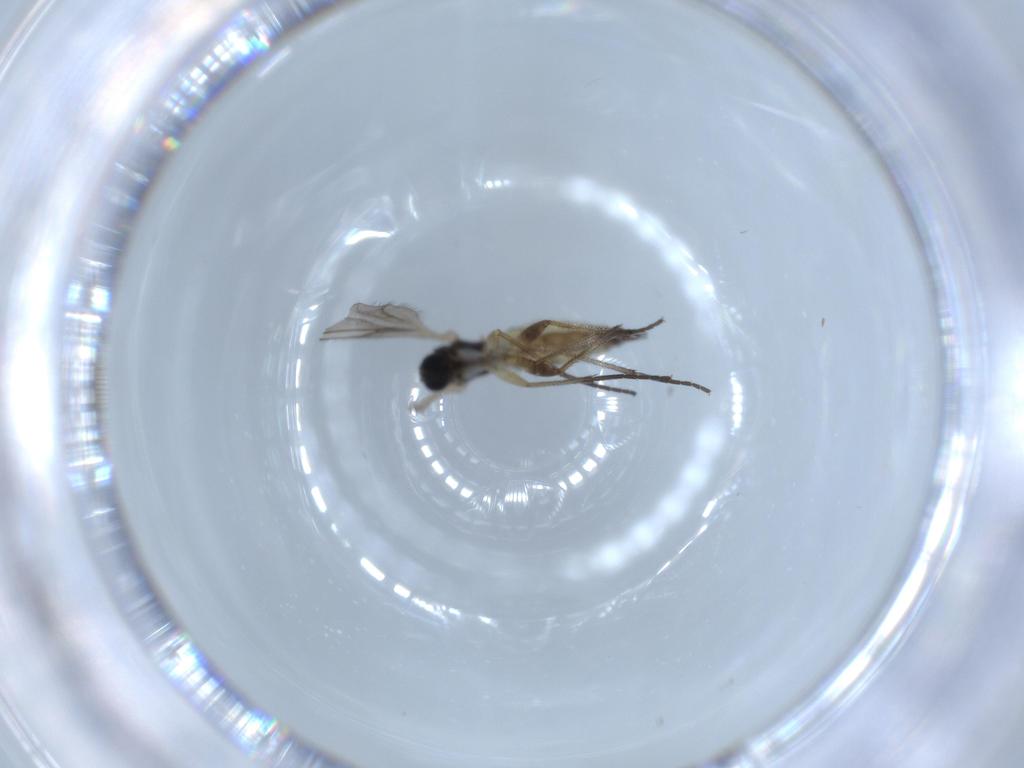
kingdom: Animalia
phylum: Arthropoda
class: Insecta
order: Diptera
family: Sciaridae
